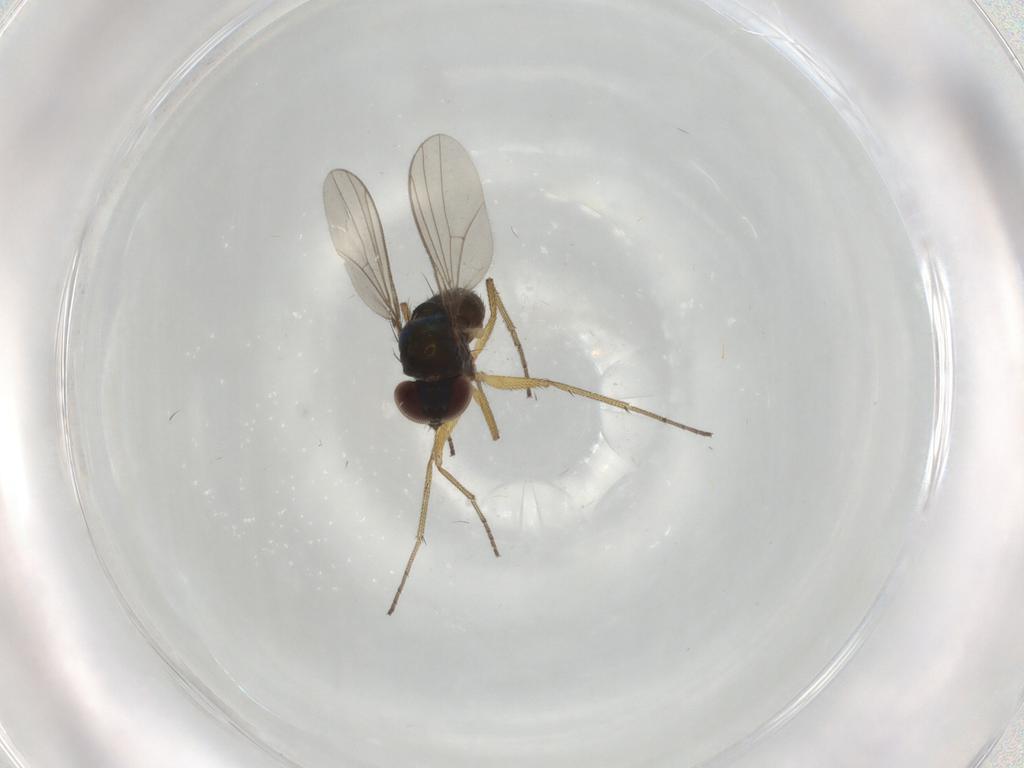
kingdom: Animalia
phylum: Arthropoda
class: Insecta
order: Diptera
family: Dolichopodidae
